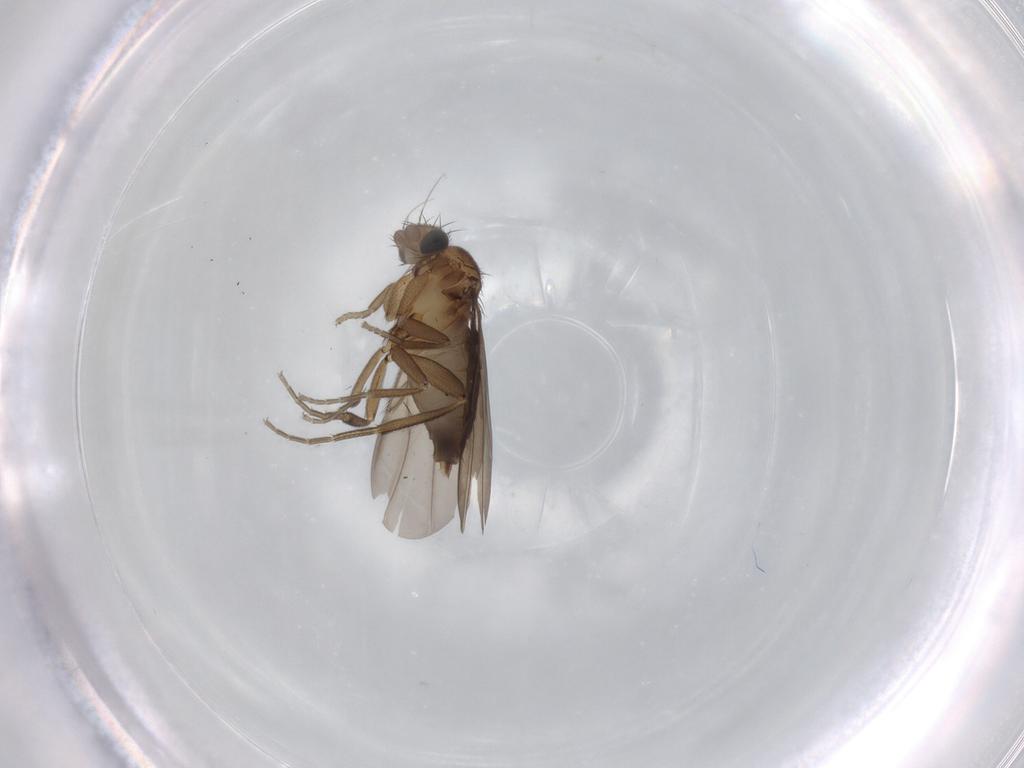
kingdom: Animalia
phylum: Arthropoda
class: Insecta
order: Diptera
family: Phoridae
